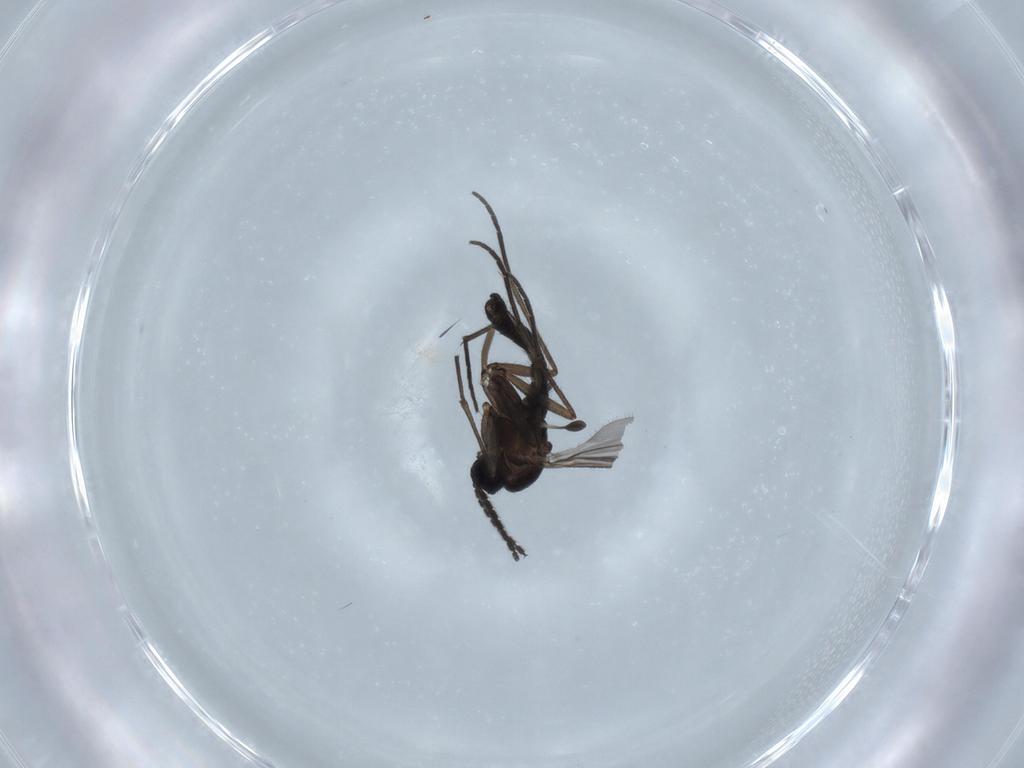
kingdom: Animalia
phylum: Arthropoda
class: Insecta
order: Diptera
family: Sciaridae
